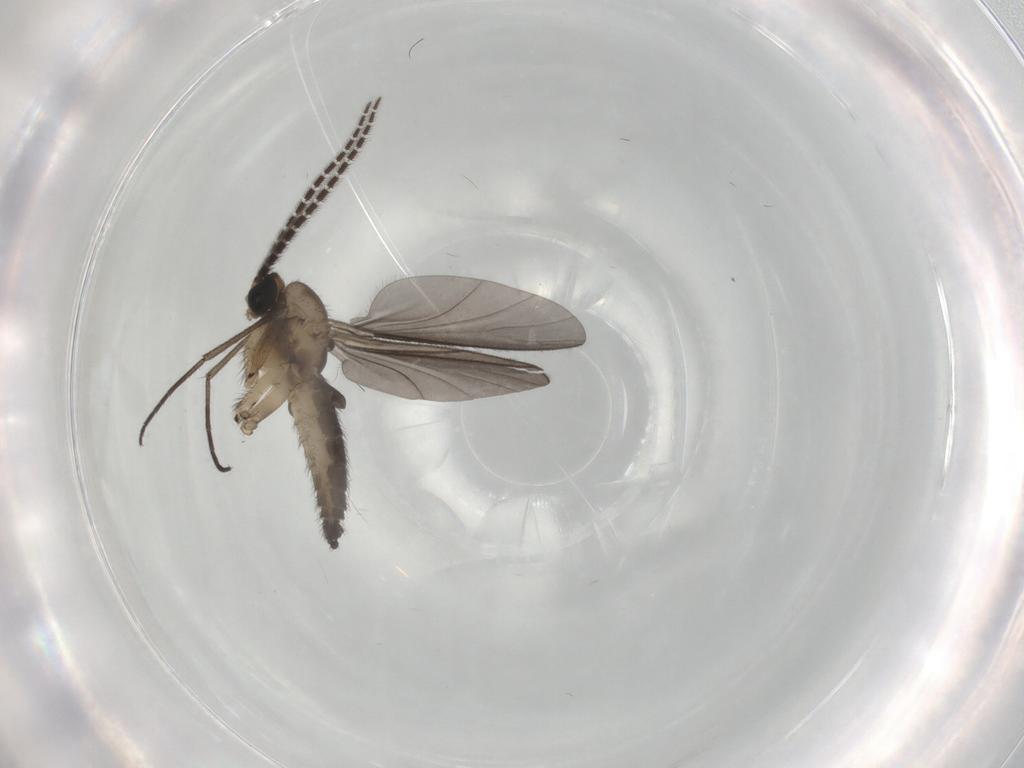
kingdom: Animalia
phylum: Arthropoda
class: Insecta
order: Diptera
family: Sciaridae
